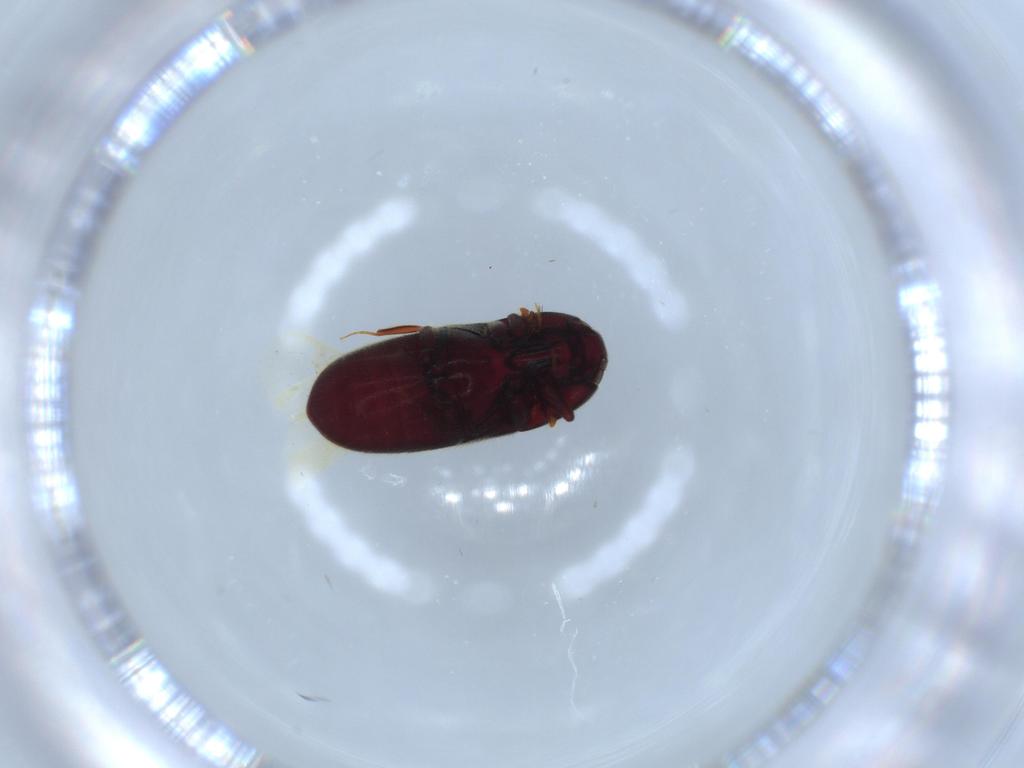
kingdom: Animalia
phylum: Arthropoda
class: Insecta
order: Coleoptera
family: Throscidae
